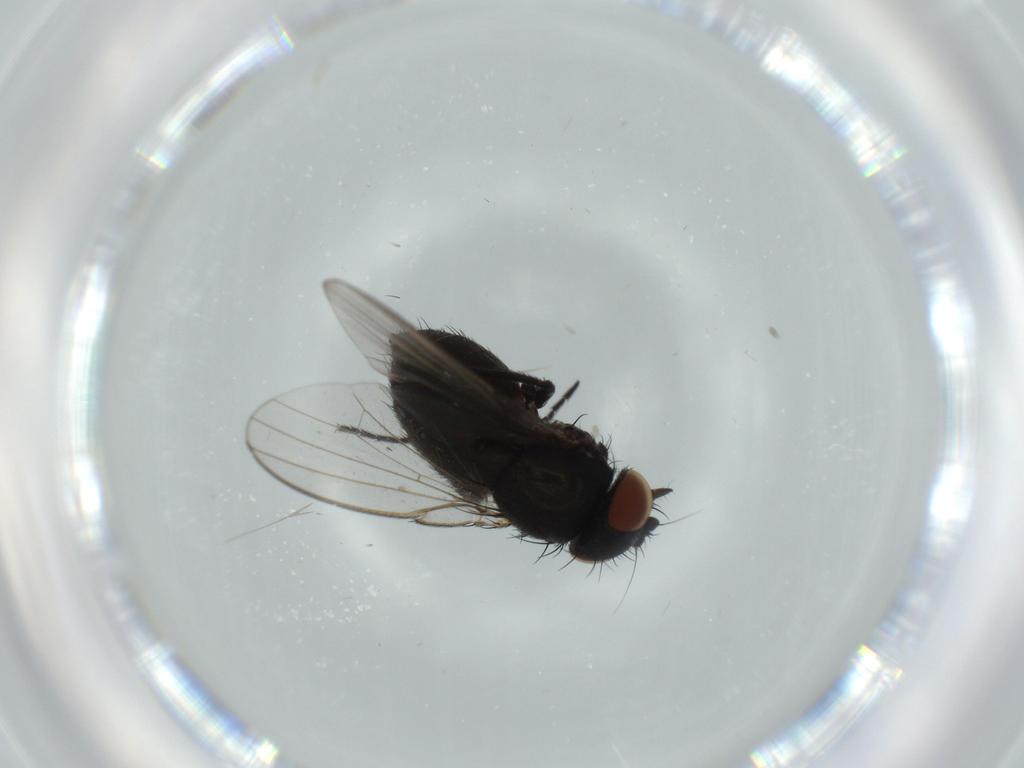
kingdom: Animalia
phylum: Arthropoda
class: Insecta
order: Diptera
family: Milichiidae
